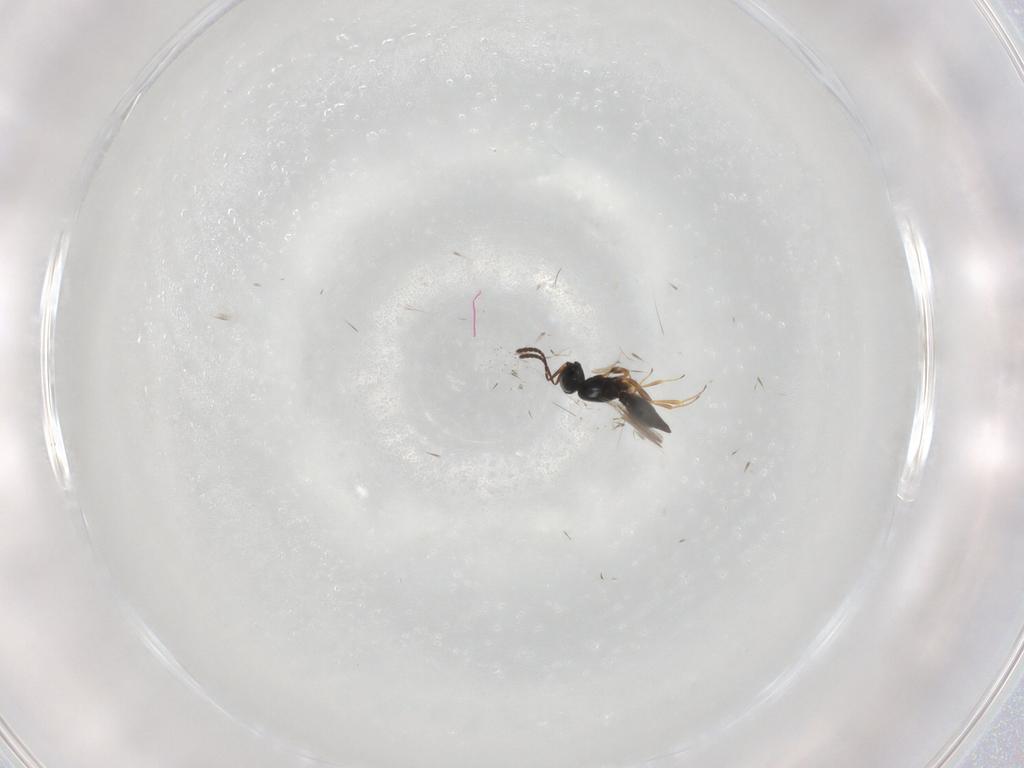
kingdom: Animalia
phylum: Arthropoda
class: Insecta
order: Hymenoptera
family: Scelionidae
